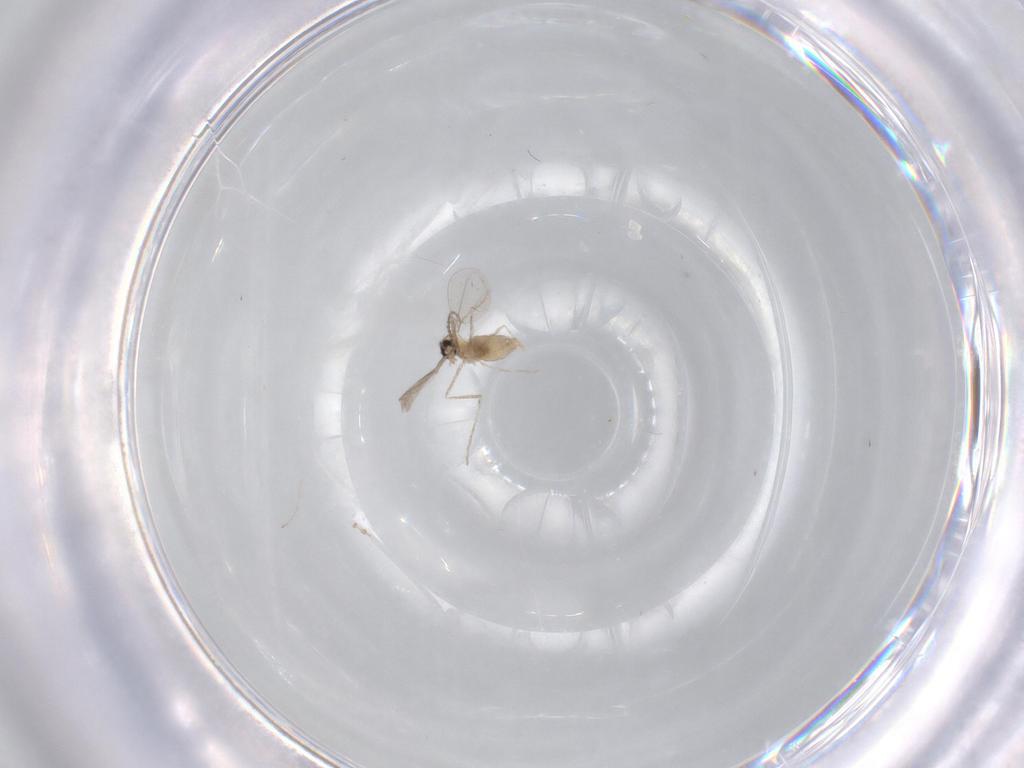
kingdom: Animalia
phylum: Arthropoda
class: Insecta
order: Diptera
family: Cecidomyiidae
